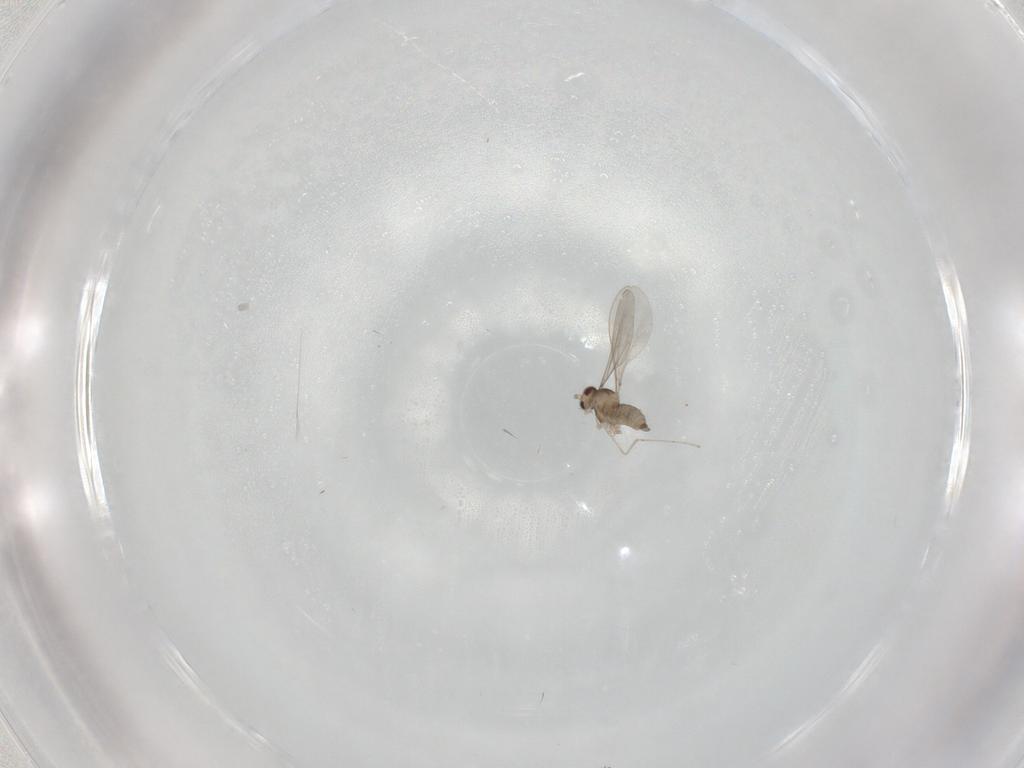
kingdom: Animalia
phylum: Arthropoda
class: Insecta
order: Diptera
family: Cecidomyiidae
